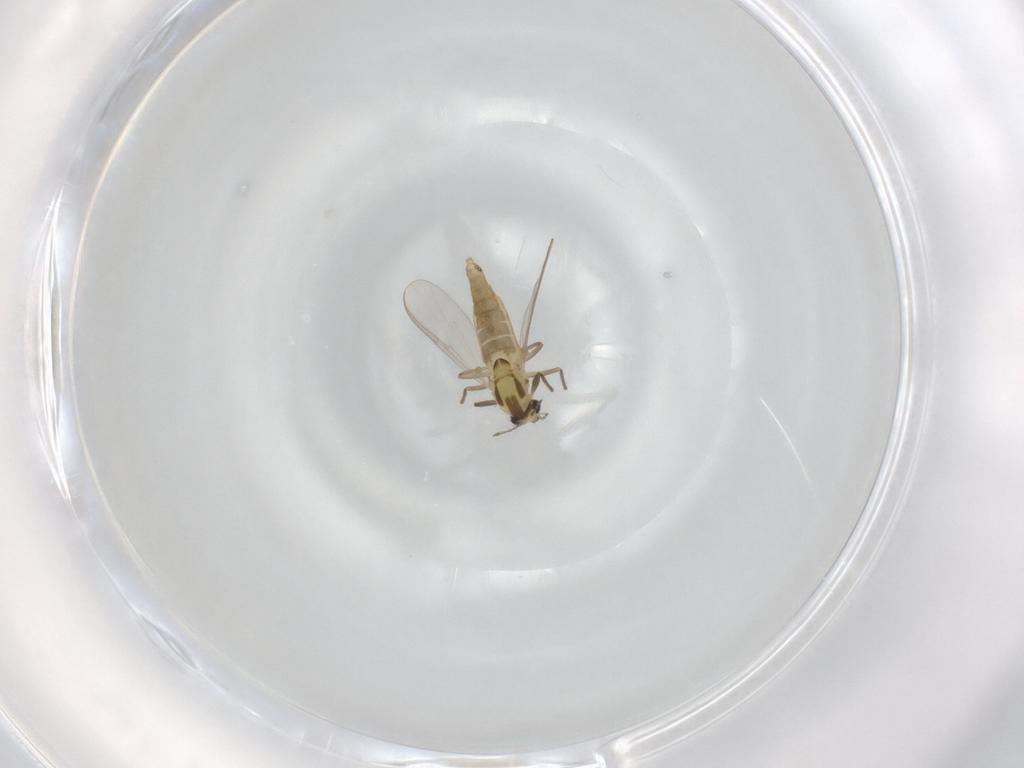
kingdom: Animalia
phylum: Arthropoda
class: Insecta
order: Diptera
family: Chironomidae
